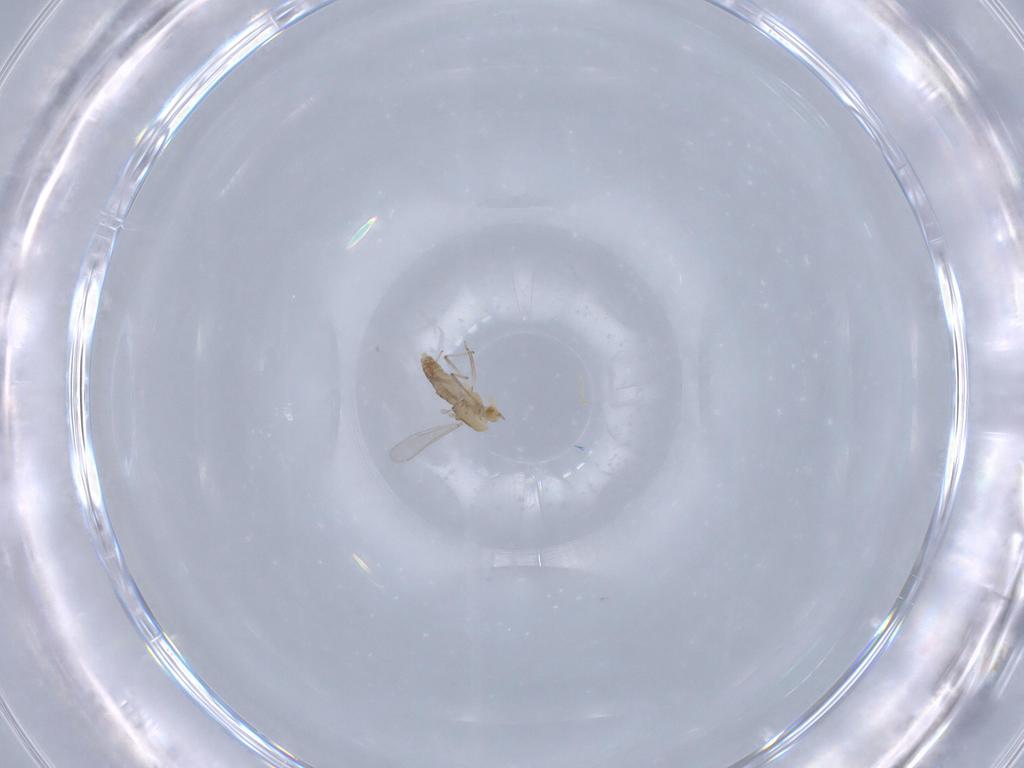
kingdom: Animalia
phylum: Arthropoda
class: Insecta
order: Diptera
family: Chironomidae
